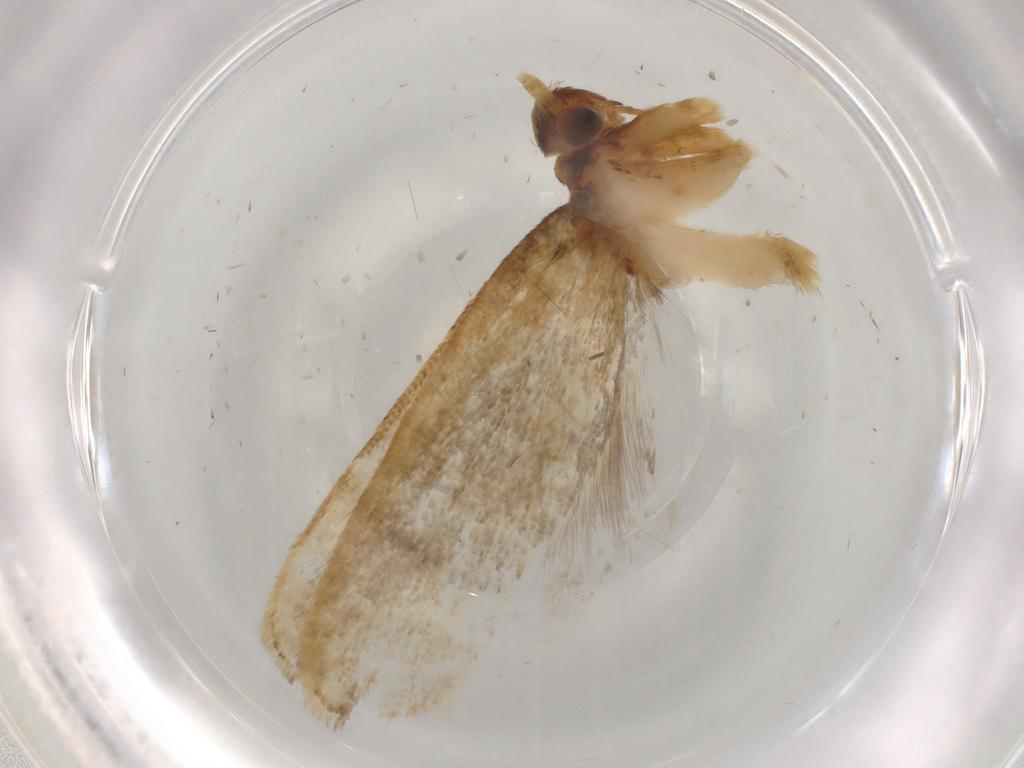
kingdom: Animalia
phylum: Arthropoda
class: Insecta
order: Lepidoptera
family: Lecithoceridae
